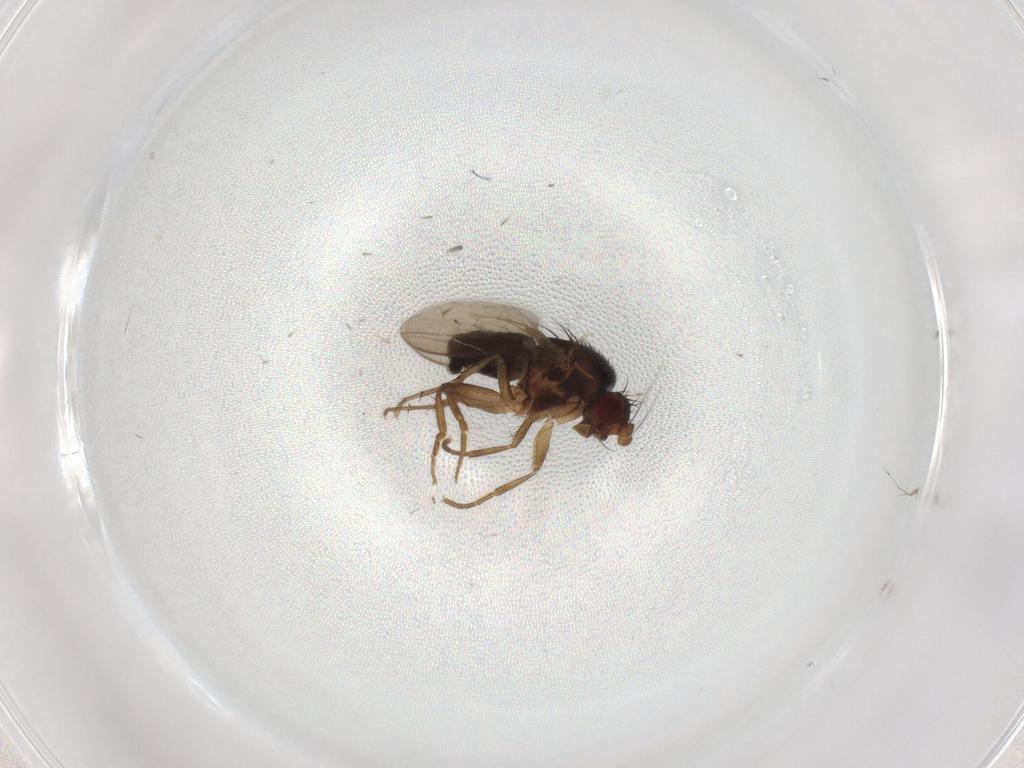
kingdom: Animalia
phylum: Arthropoda
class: Insecta
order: Diptera
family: Sphaeroceridae
